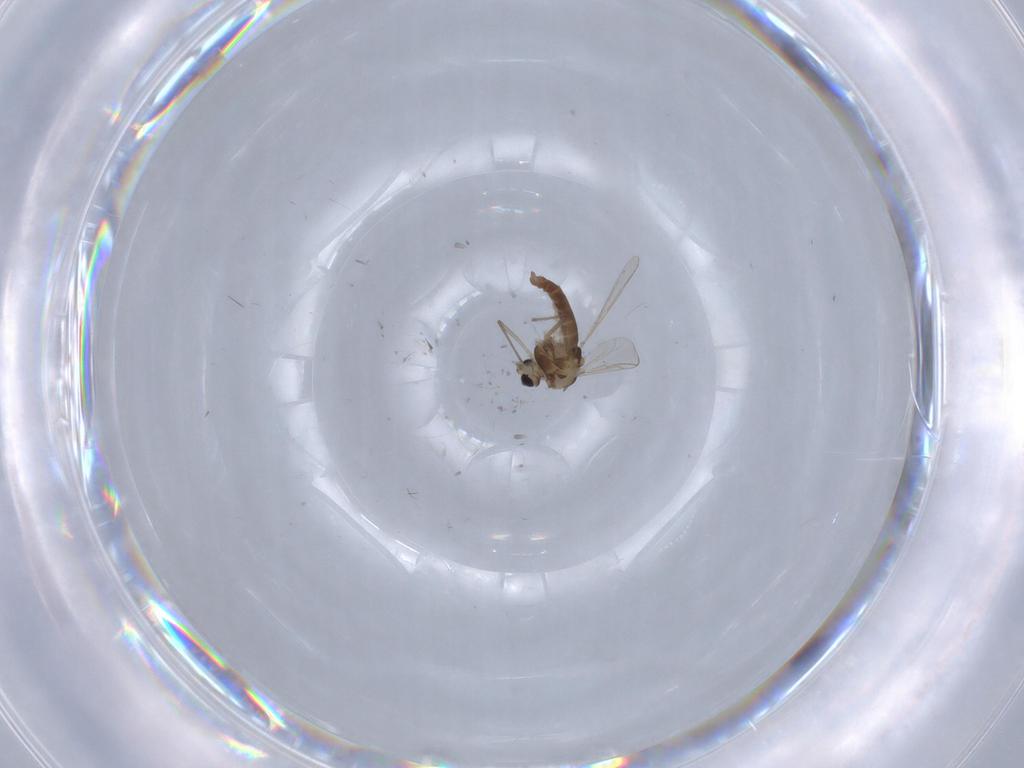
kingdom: Animalia
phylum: Arthropoda
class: Insecta
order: Diptera
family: Chironomidae
